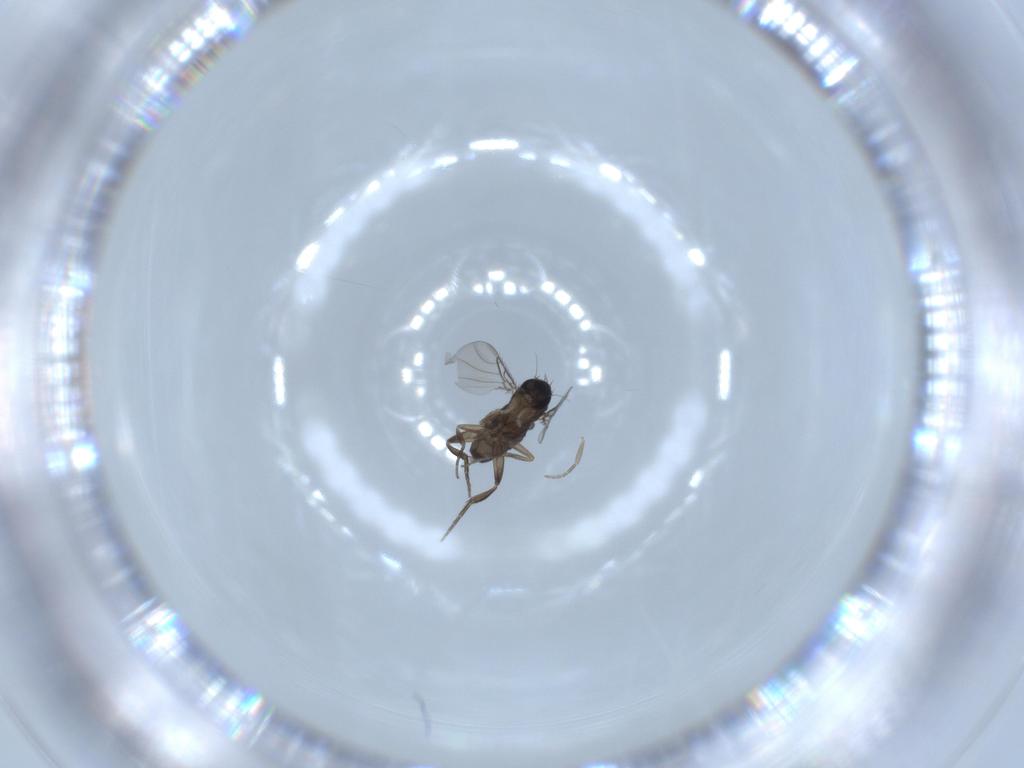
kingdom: Animalia
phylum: Arthropoda
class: Insecta
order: Diptera
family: Phoridae
